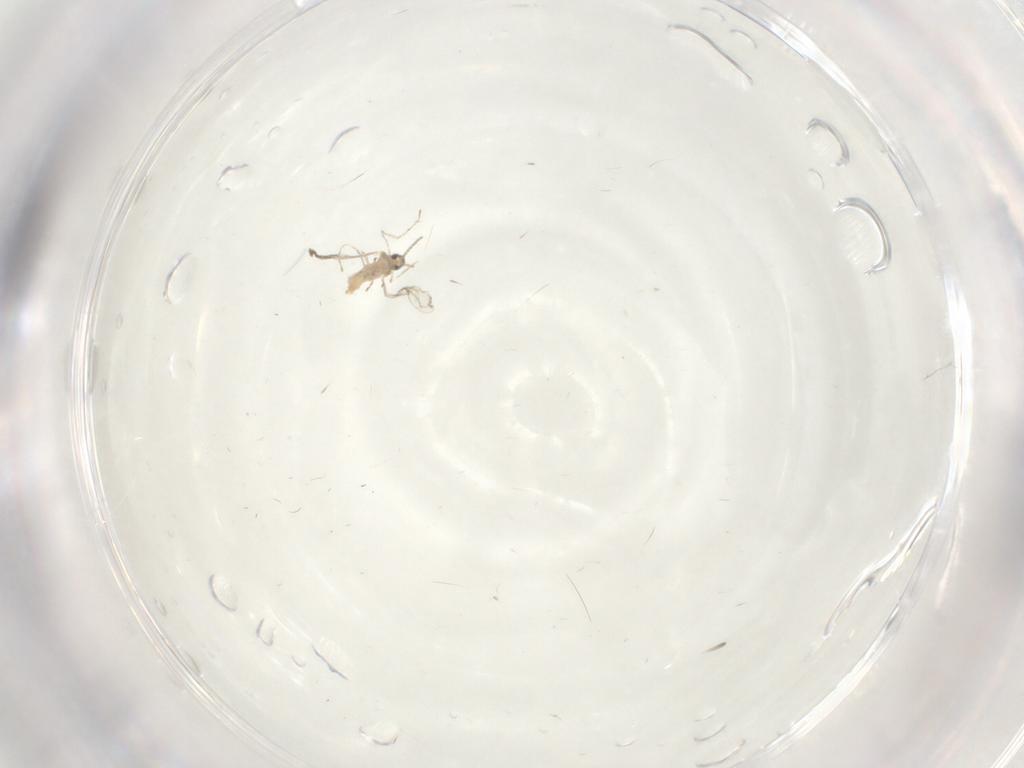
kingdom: Animalia
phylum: Arthropoda
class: Insecta
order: Diptera
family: Cecidomyiidae
